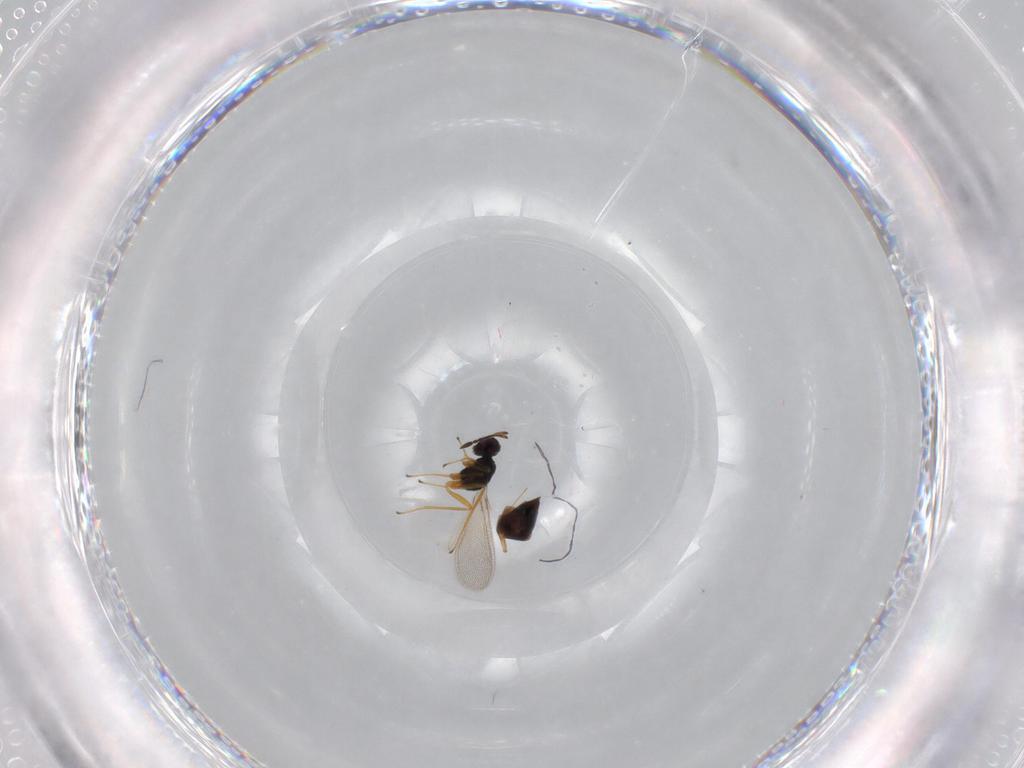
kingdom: Animalia
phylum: Arthropoda
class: Insecta
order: Hymenoptera
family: Mymaridae
